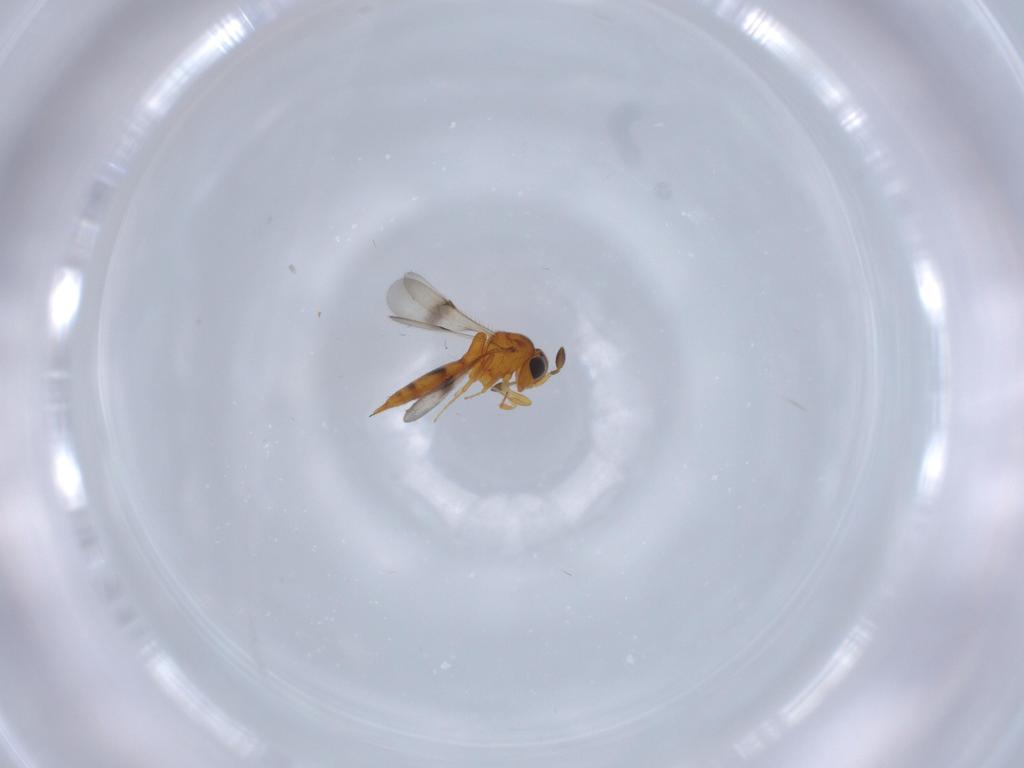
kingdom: Animalia
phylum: Arthropoda
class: Insecta
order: Hymenoptera
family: Scelionidae
